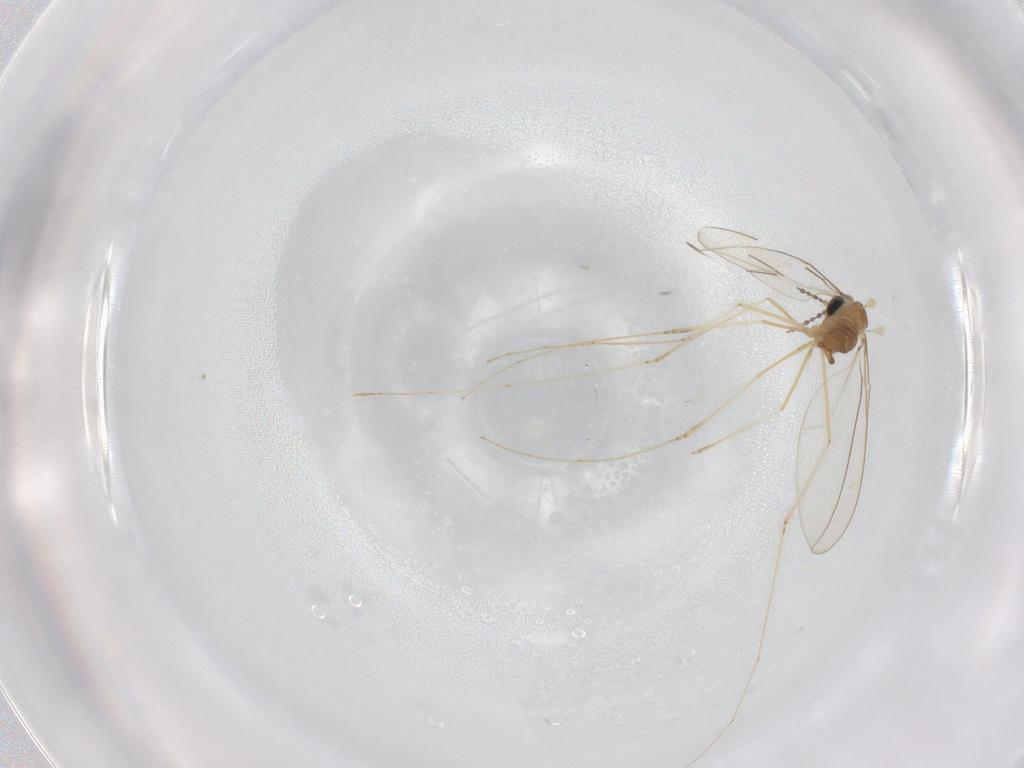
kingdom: Animalia
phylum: Arthropoda
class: Insecta
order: Diptera
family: Cecidomyiidae
